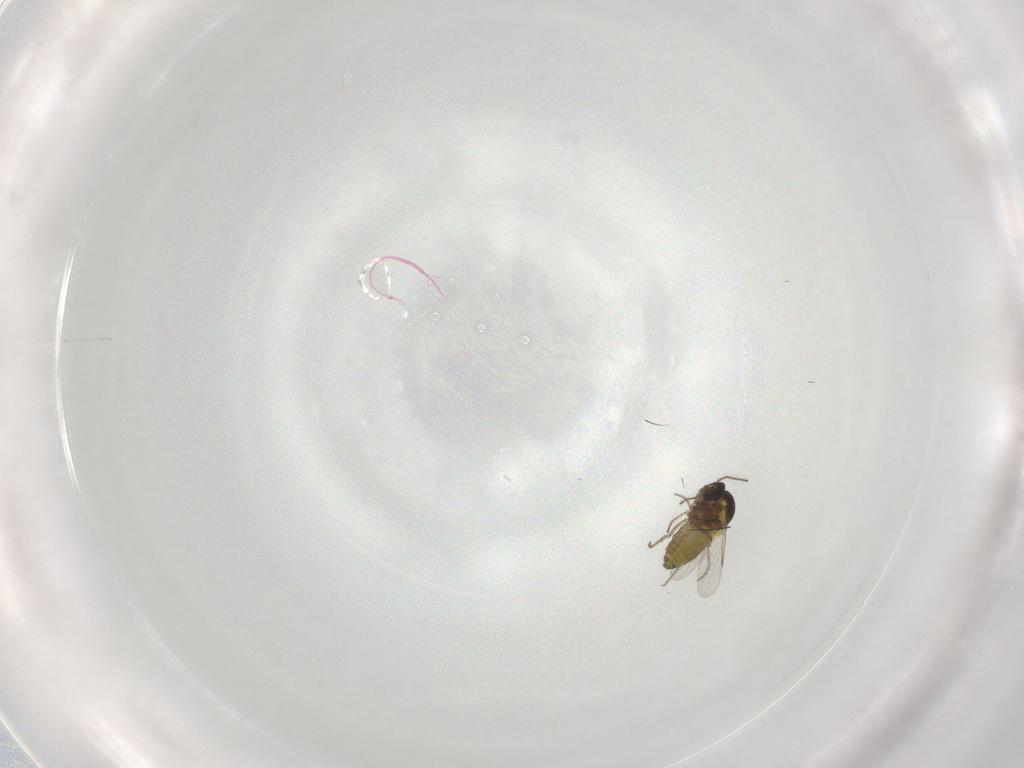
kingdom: Animalia
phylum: Arthropoda
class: Insecta
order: Diptera
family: Ceratopogonidae
